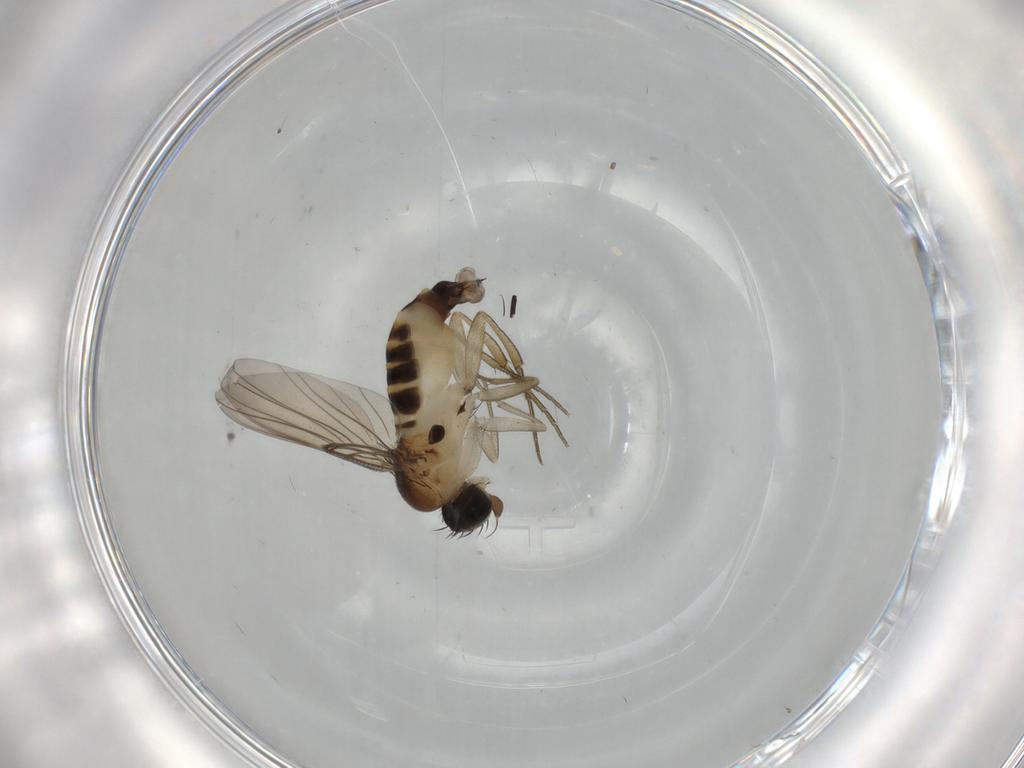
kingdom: Animalia
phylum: Arthropoda
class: Insecta
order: Diptera
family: Phoridae
